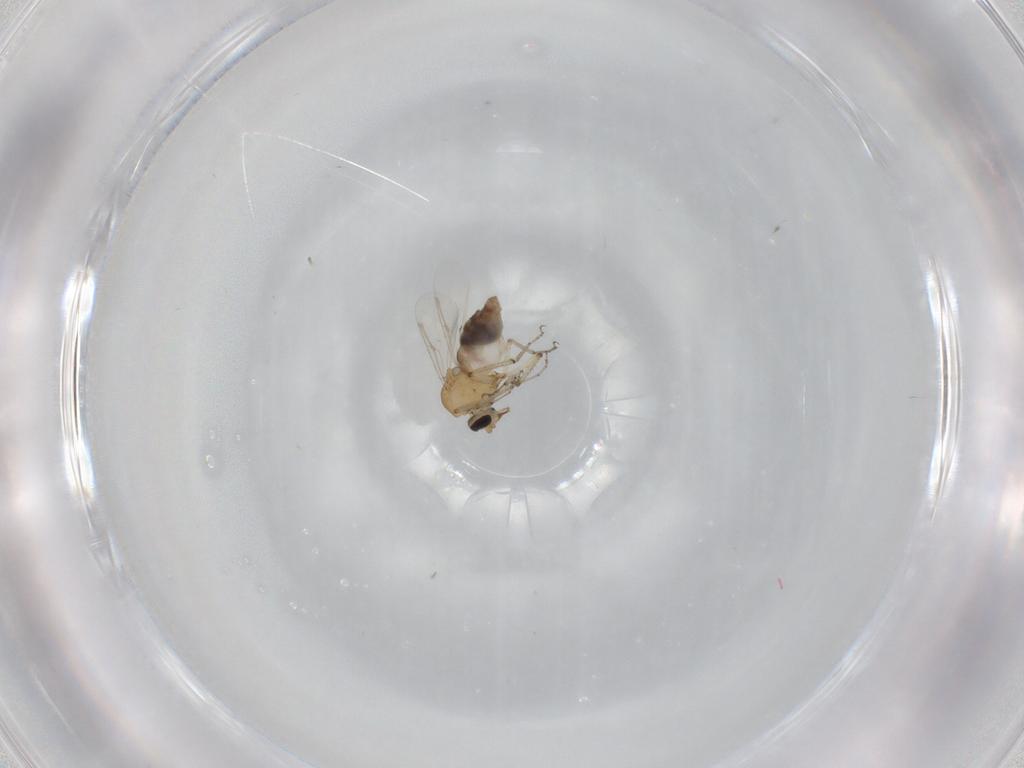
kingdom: Animalia
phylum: Arthropoda
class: Insecta
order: Diptera
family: Ceratopogonidae
